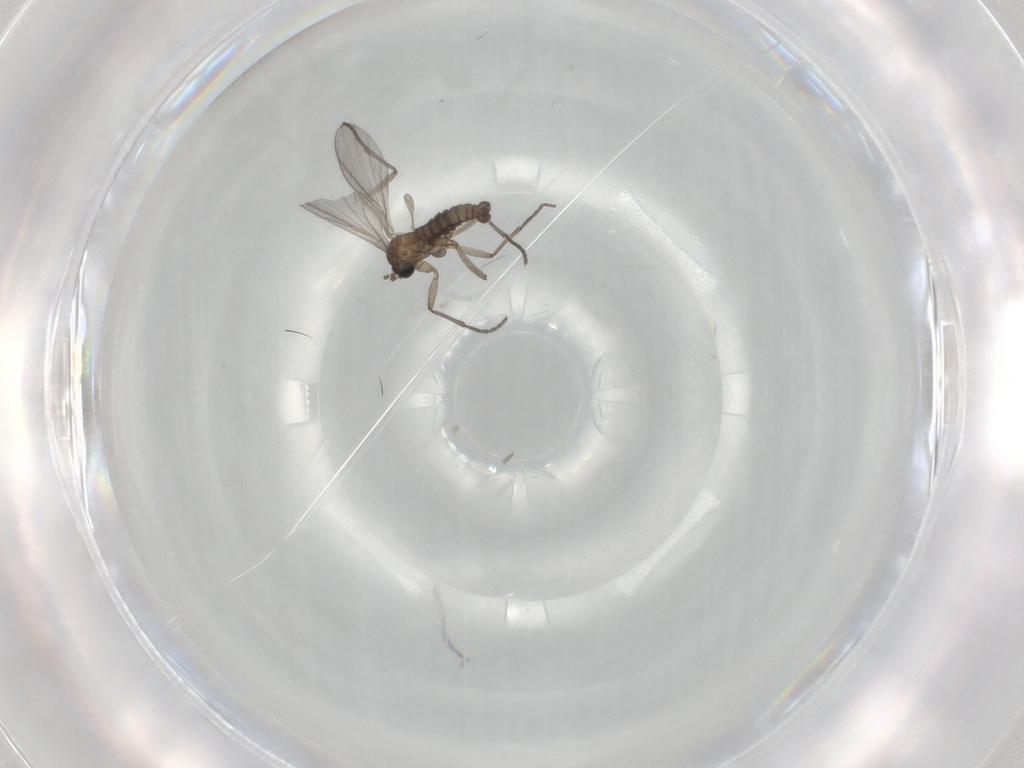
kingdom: Animalia
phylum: Arthropoda
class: Insecta
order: Diptera
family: Sciaridae
